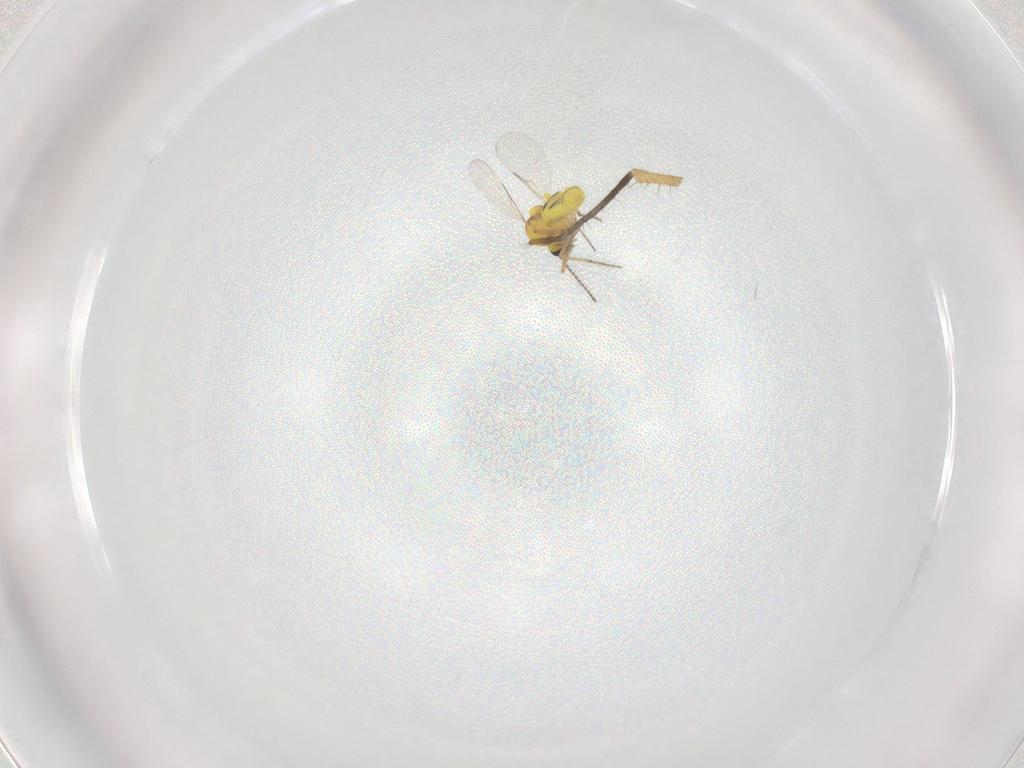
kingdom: Animalia
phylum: Arthropoda
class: Insecta
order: Diptera
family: Ceratopogonidae
